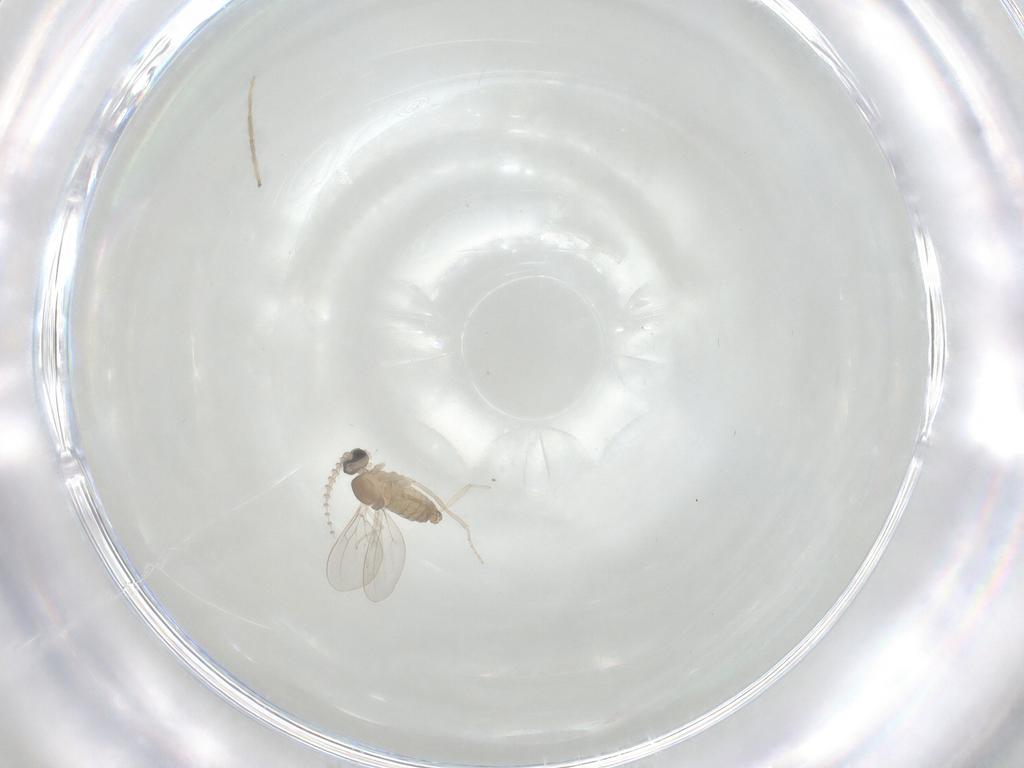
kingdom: Animalia
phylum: Arthropoda
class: Insecta
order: Diptera
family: Cecidomyiidae
